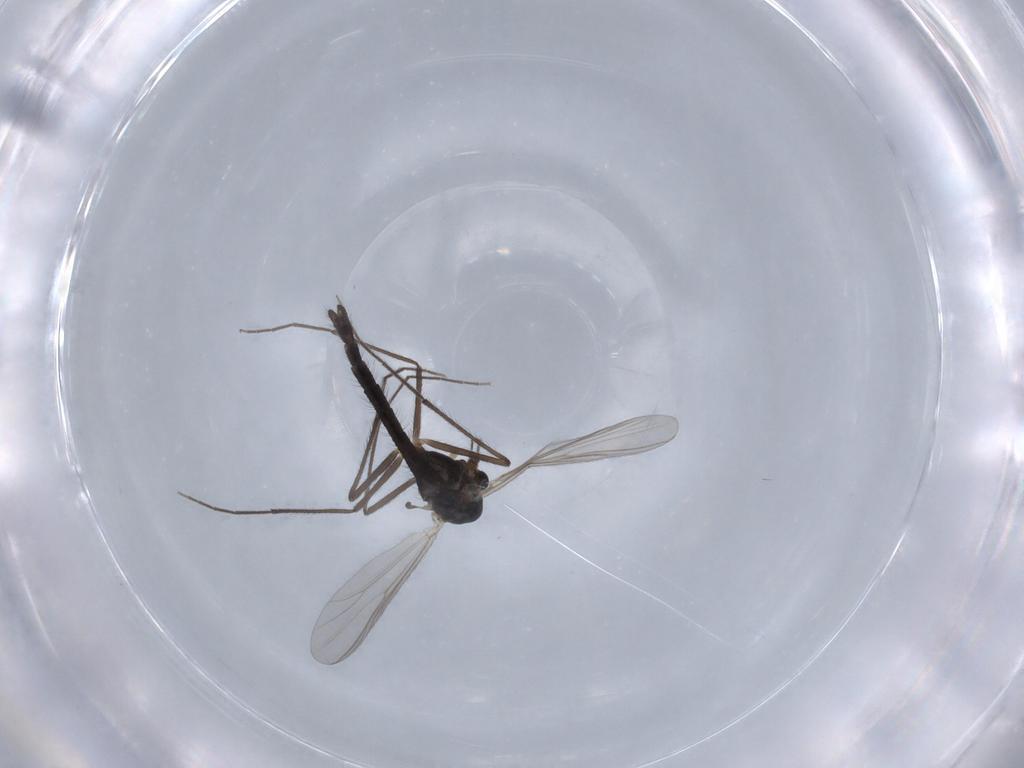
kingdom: Animalia
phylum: Arthropoda
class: Insecta
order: Diptera
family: Chironomidae
